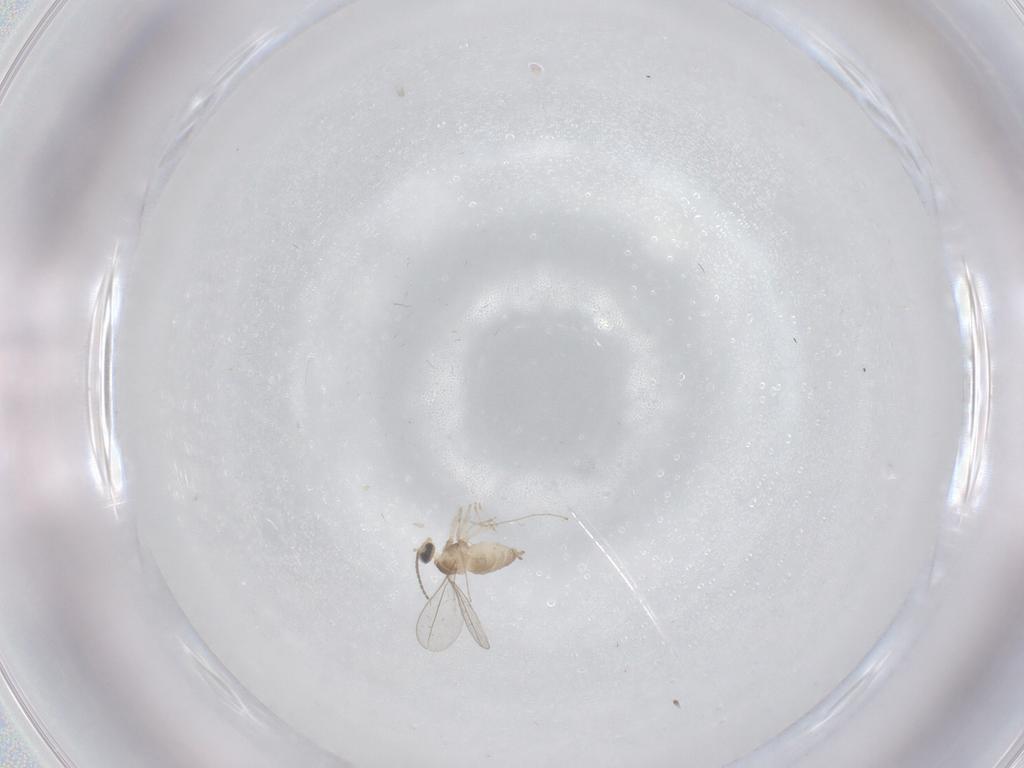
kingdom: Animalia
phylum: Arthropoda
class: Insecta
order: Diptera
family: Cecidomyiidae
